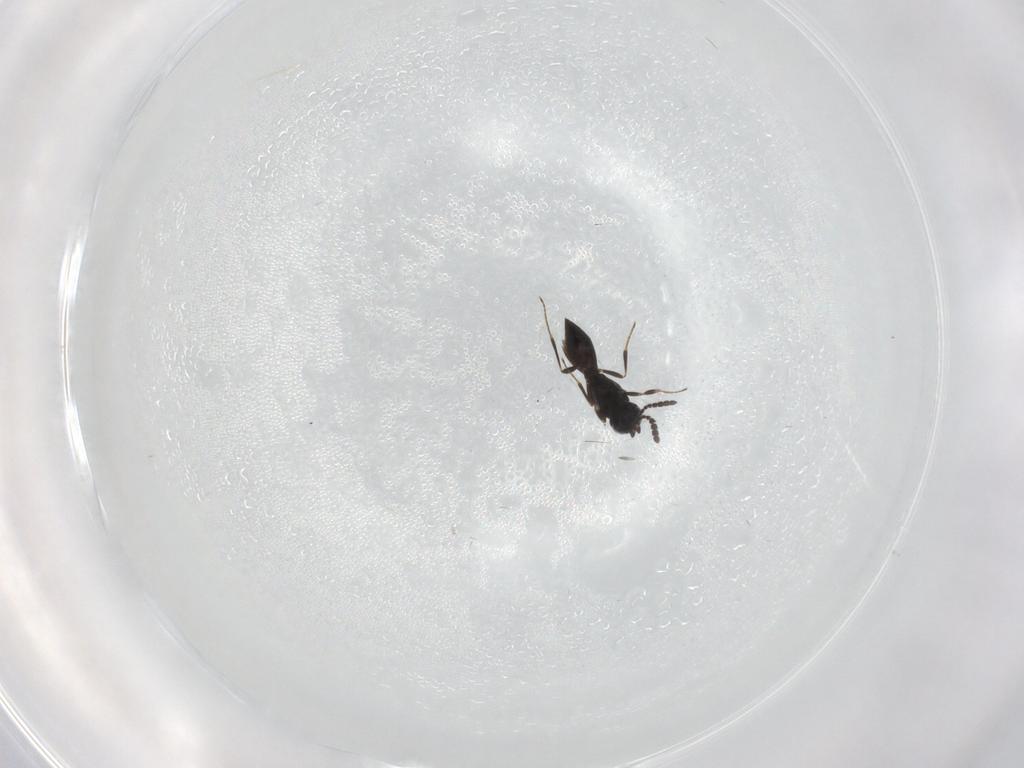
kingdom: Animalia
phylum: Arthropoda
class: Insecta
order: Hymenoptera
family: Scelionidae
